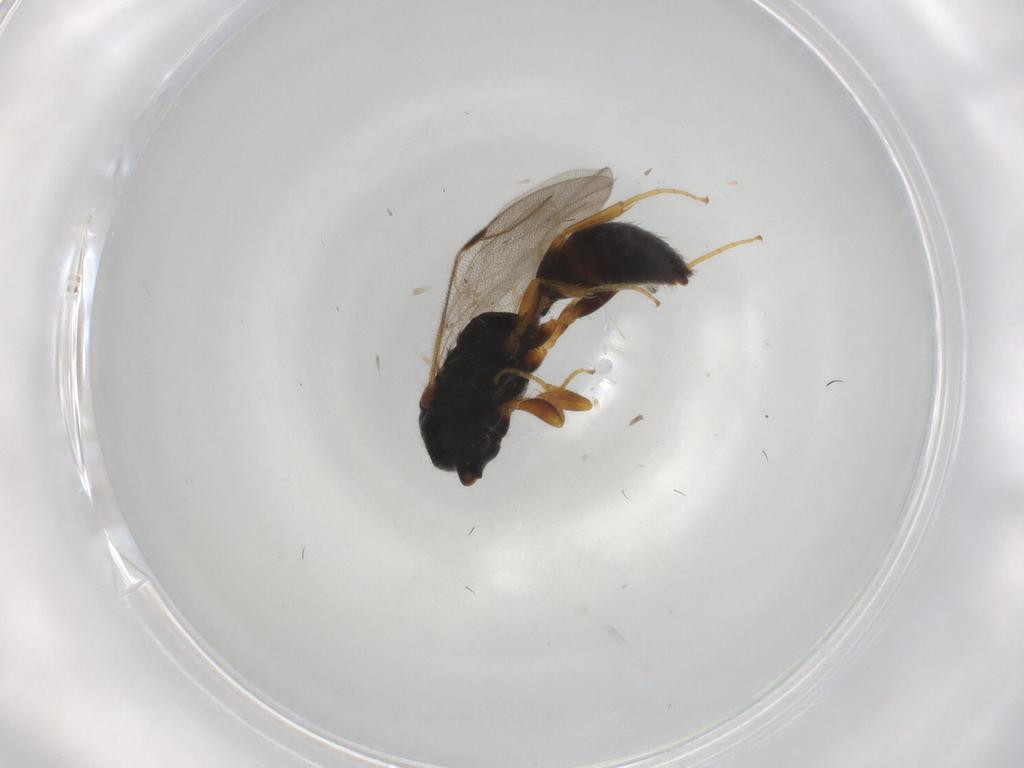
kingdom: Animalia
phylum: Arthropoda
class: Insecta
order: Hymenoptera
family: Bethylidae
